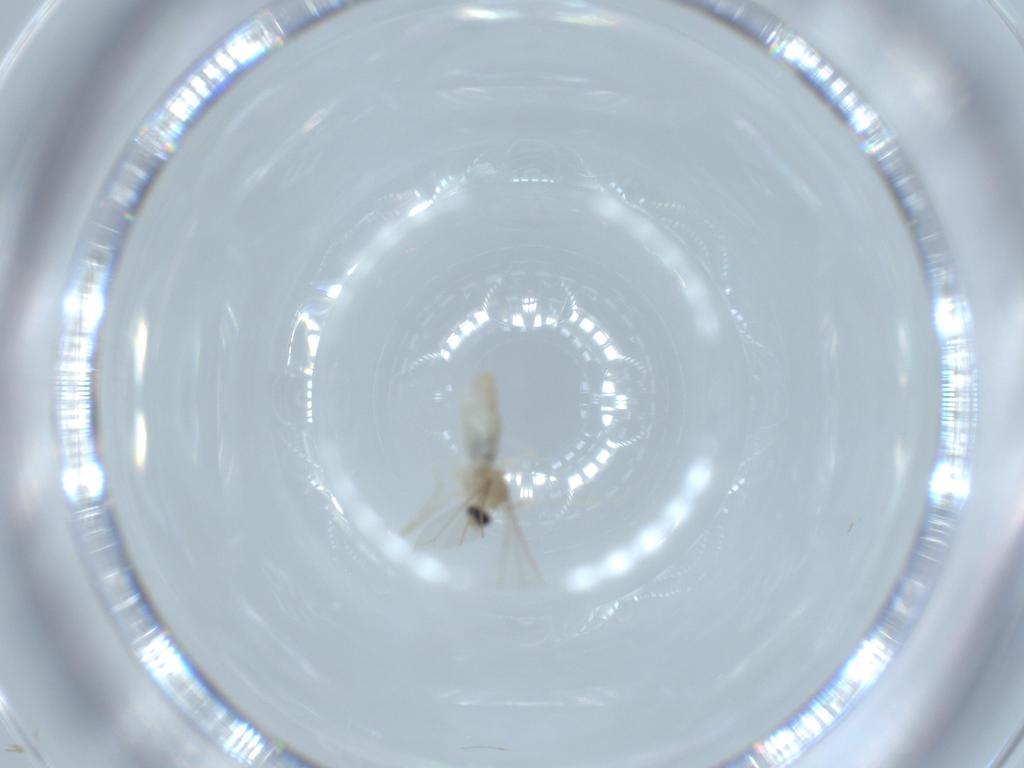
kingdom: Animalia
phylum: Arthropoda
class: Insecta
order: Diptera
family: Cecidomyiidae
